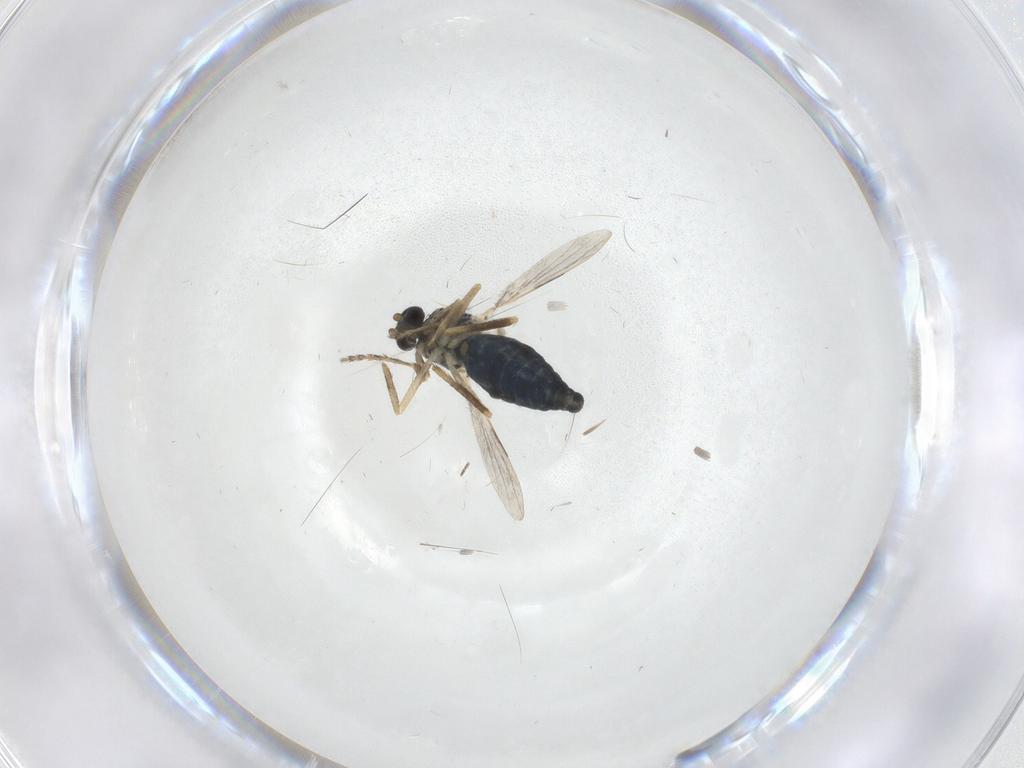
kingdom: Animalia
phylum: Arthropoda
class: Insecta
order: Diptera
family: Ceratopogonidae
